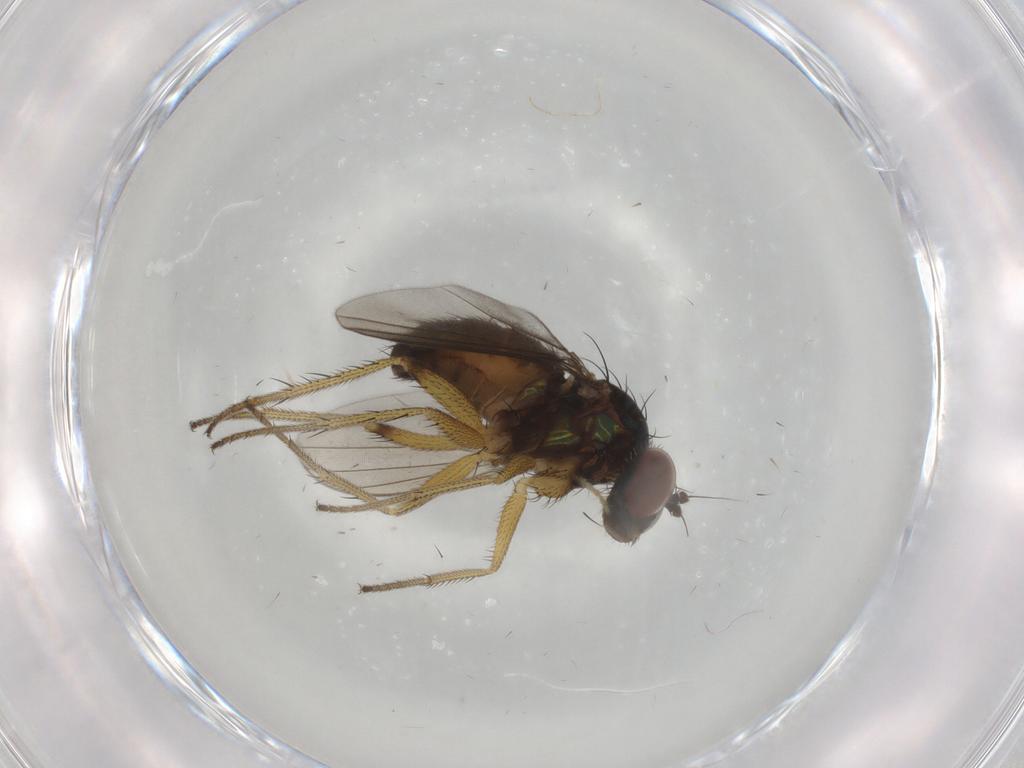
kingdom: Animalia
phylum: Arthropoda
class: Insecta
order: Diptera
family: Dolichopodidae
